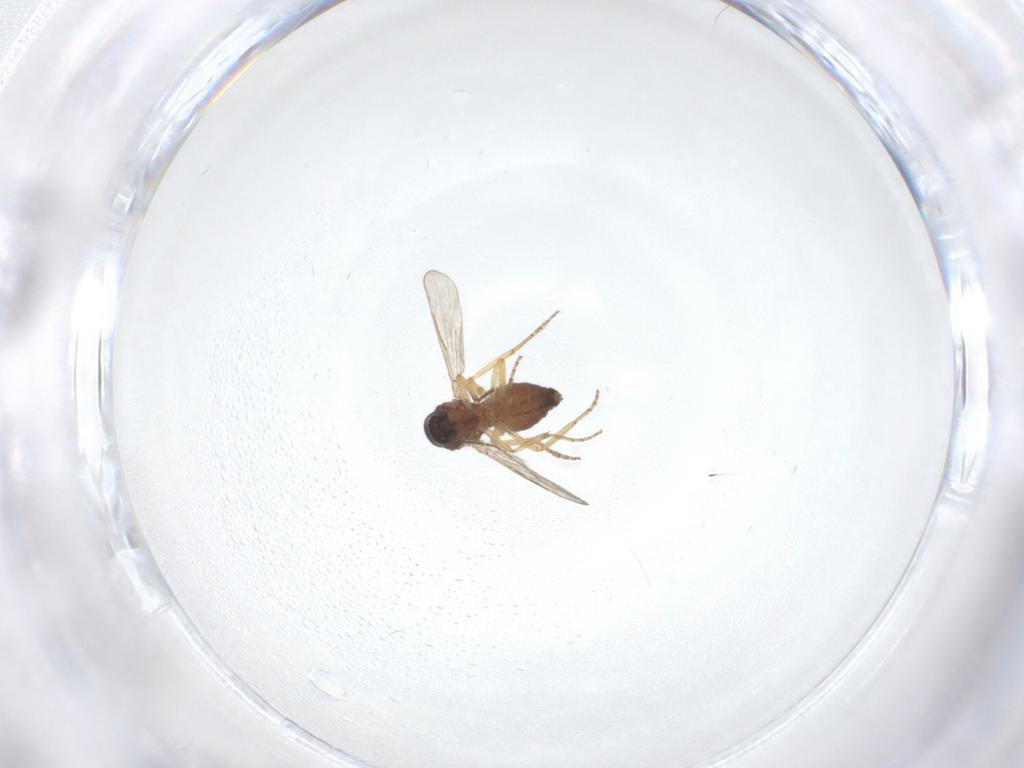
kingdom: Animalia
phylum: Arthropoda
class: Insecta
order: Diptera
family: Ceratopogonidae
